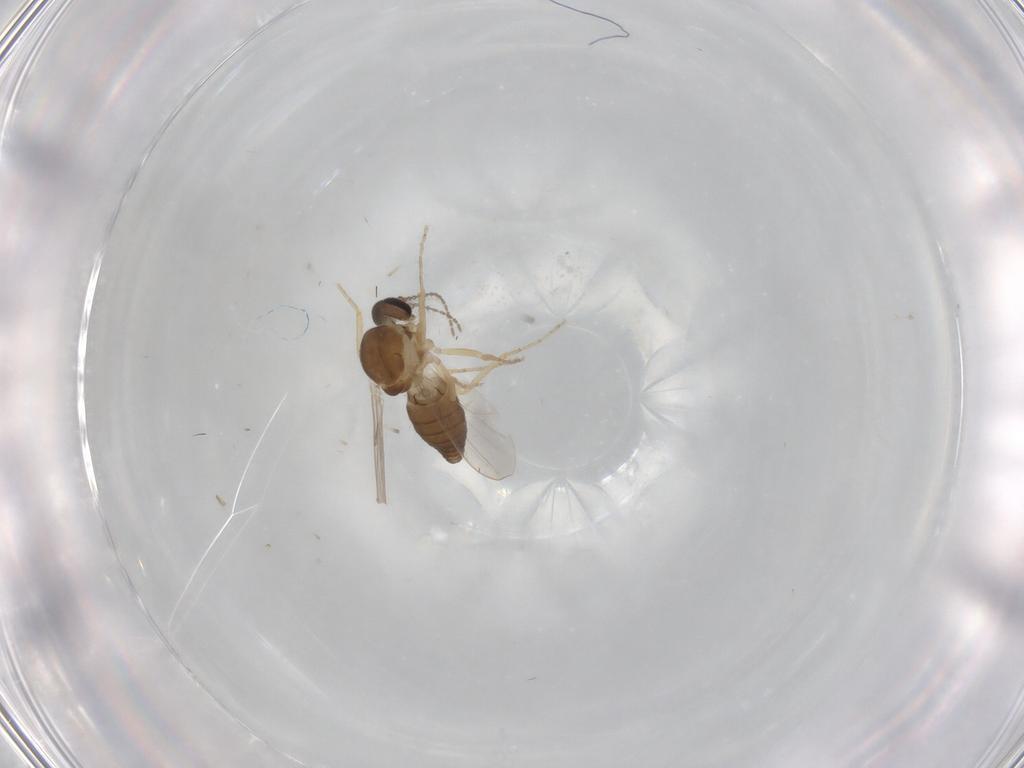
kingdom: Animalia
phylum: Arthropoda
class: Insecta
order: Diptera
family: Ceratopogonidae
